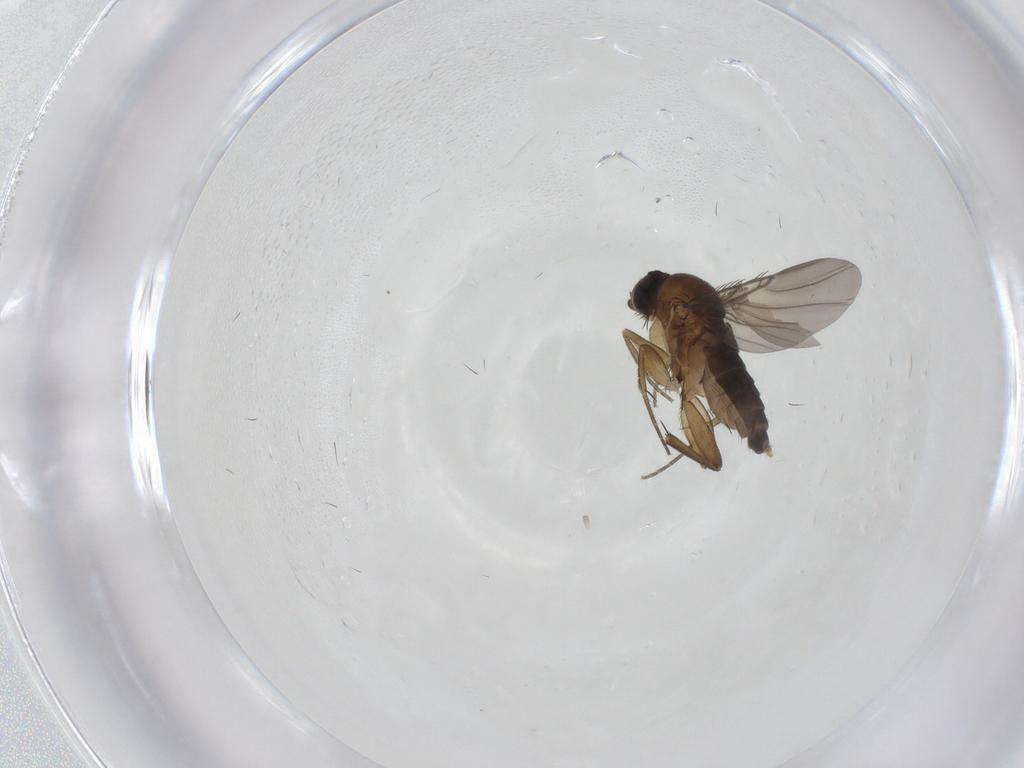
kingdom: Animalia
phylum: Arthropoda
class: Insecta
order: Diptera
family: Phoridae
